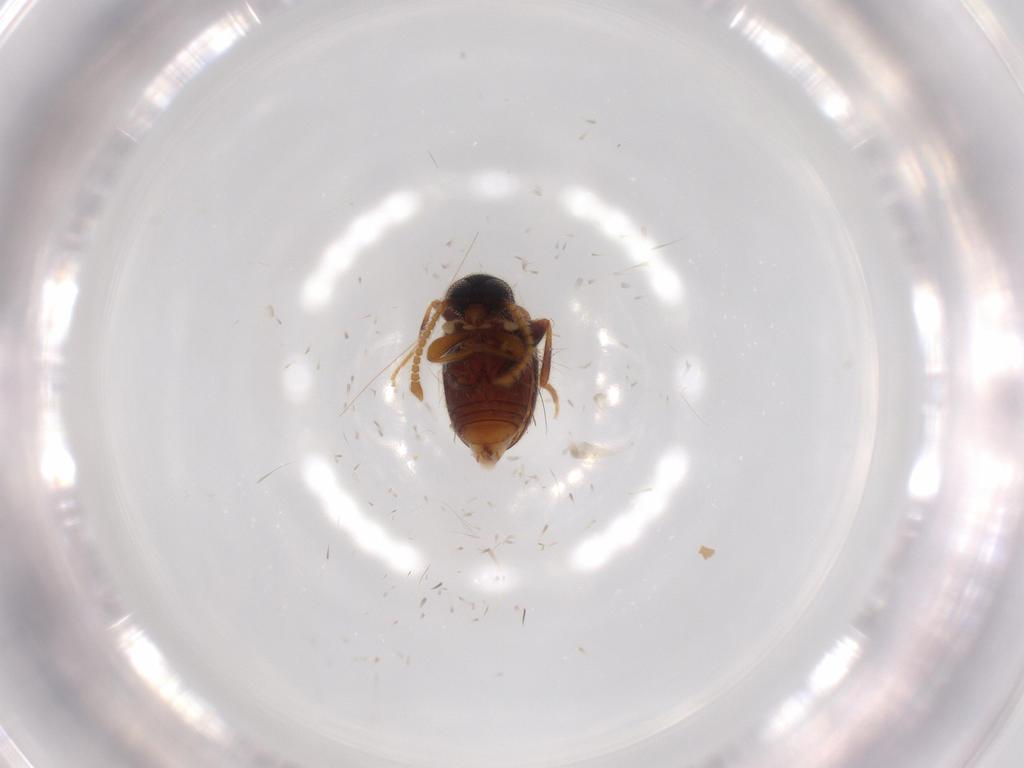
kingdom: Animalia
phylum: Arthropoda
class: Insecta
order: Coleoptera
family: Aderidae
